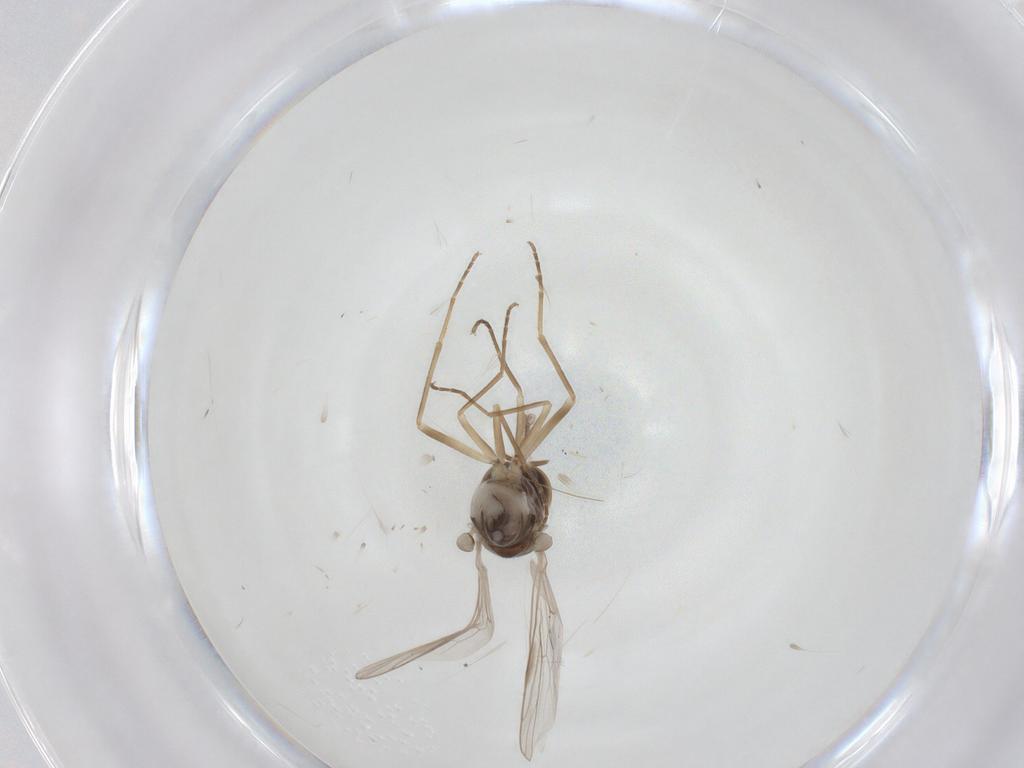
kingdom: Animalia
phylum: Arthropoda
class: Insecta
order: Diptera
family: Scenopinidae
